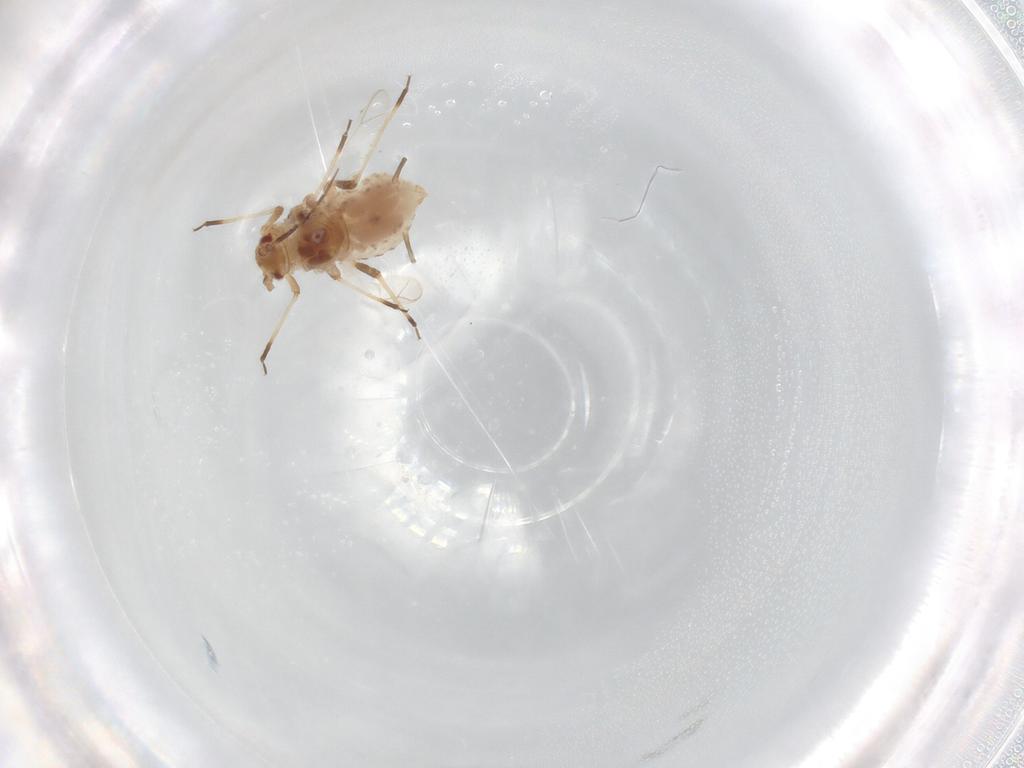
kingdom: Animalia
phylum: Arthropoda
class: Insecta
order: Hemiptera
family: Aphididae
